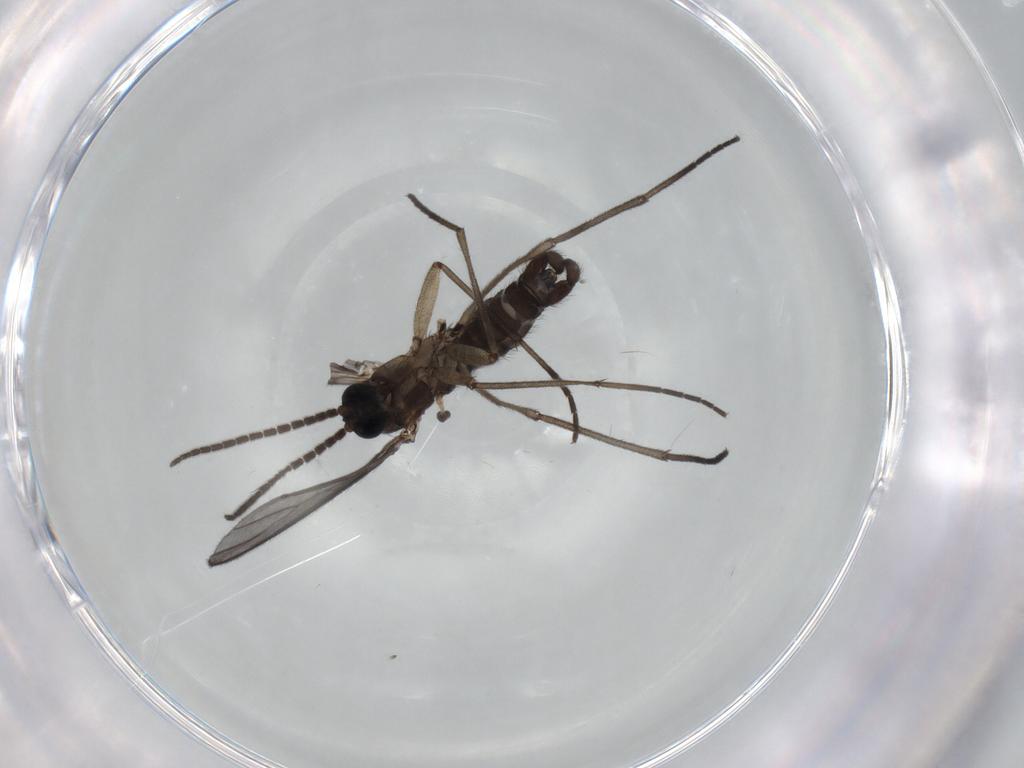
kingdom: Animalia
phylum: Arthropoda
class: Insecta
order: Diptera
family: Sciaridae
